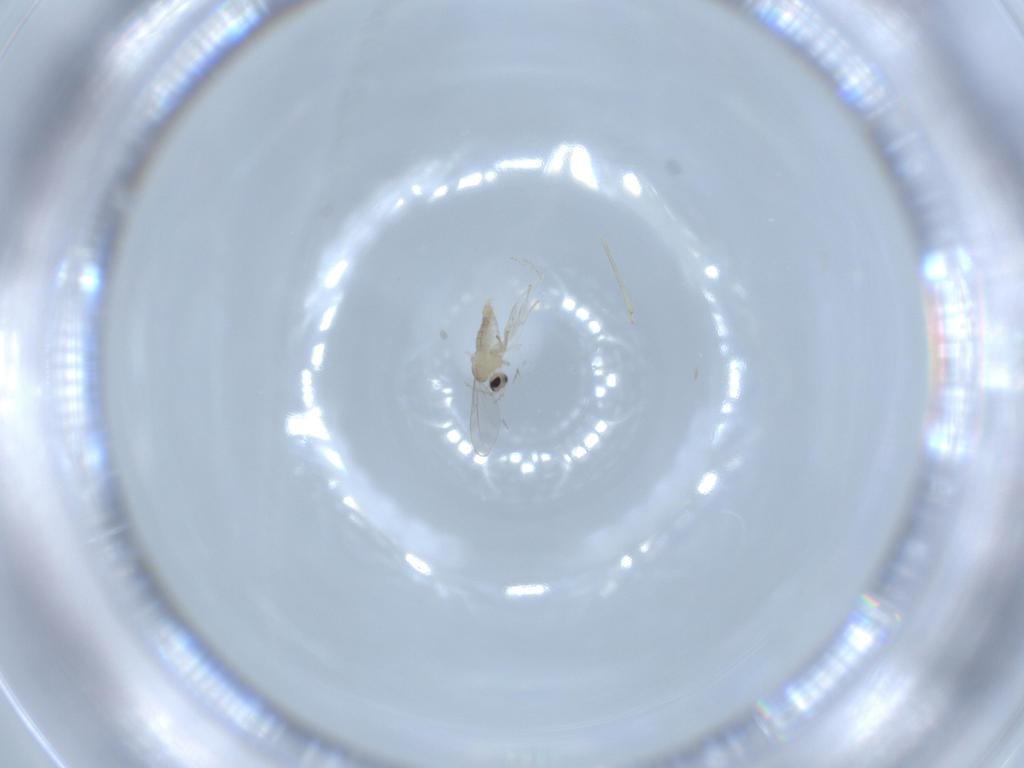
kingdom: Animalia
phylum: Arthropoda
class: Insecta
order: Diptera
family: Cecidomyiidae
